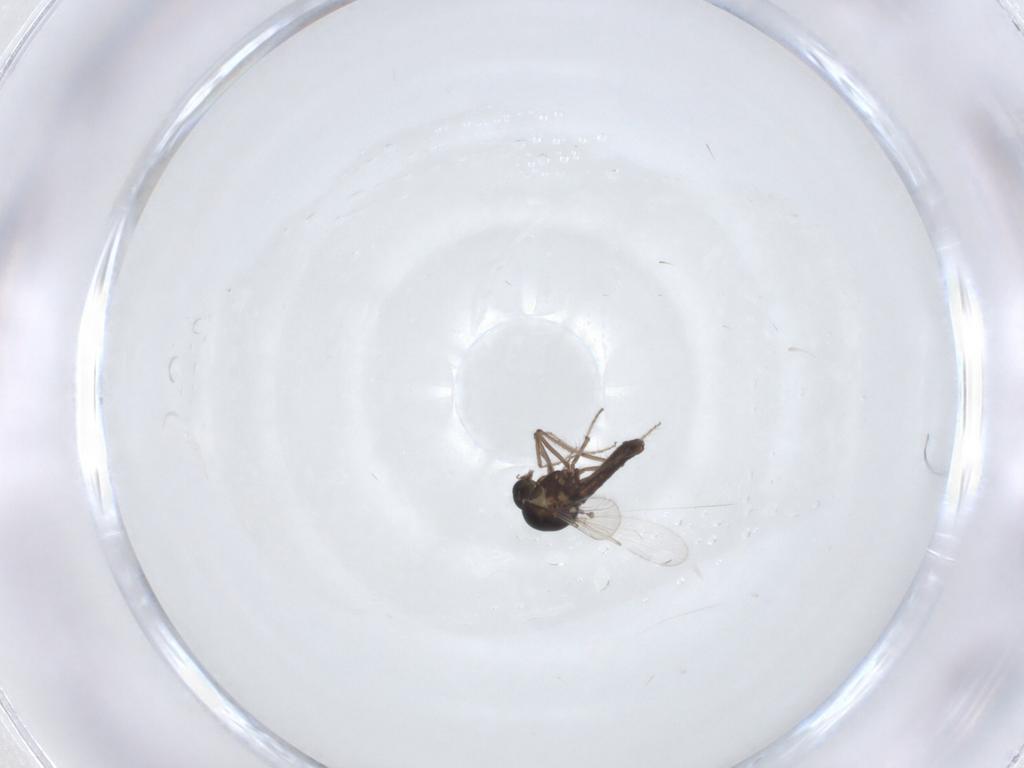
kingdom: Animalia
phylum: Arthropoda
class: Insecta
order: Diptera
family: Ceratopogonidae
